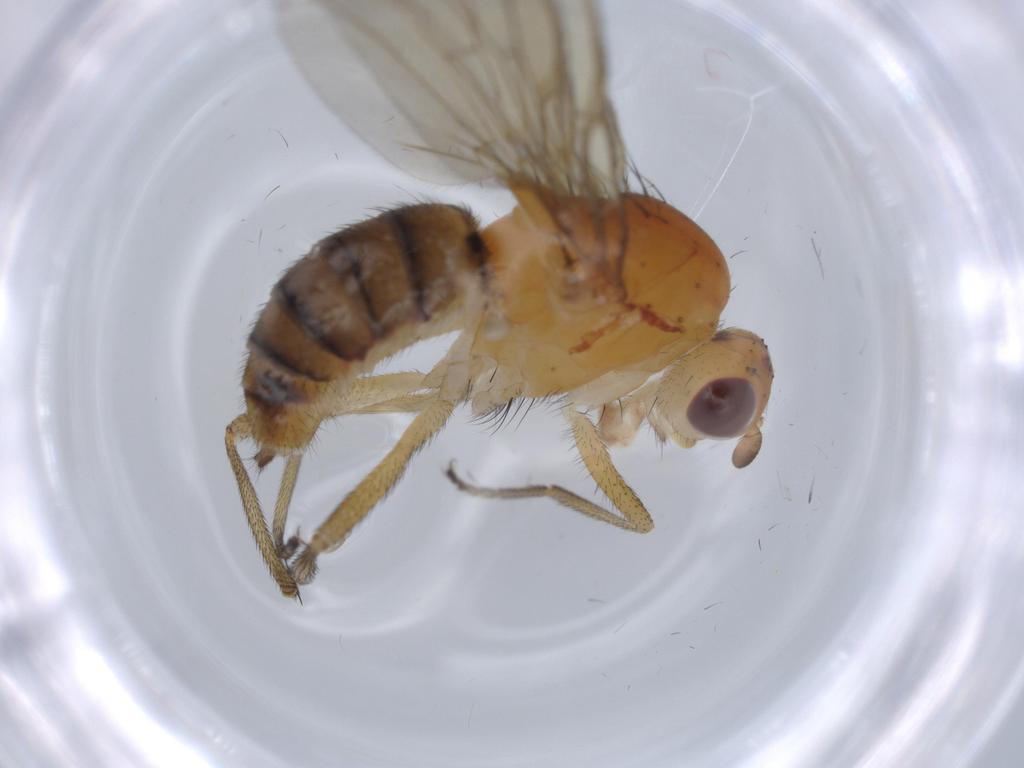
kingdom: Animalia
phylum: Arthropoda
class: Insecta
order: Diptera
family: Heleomyzidae
